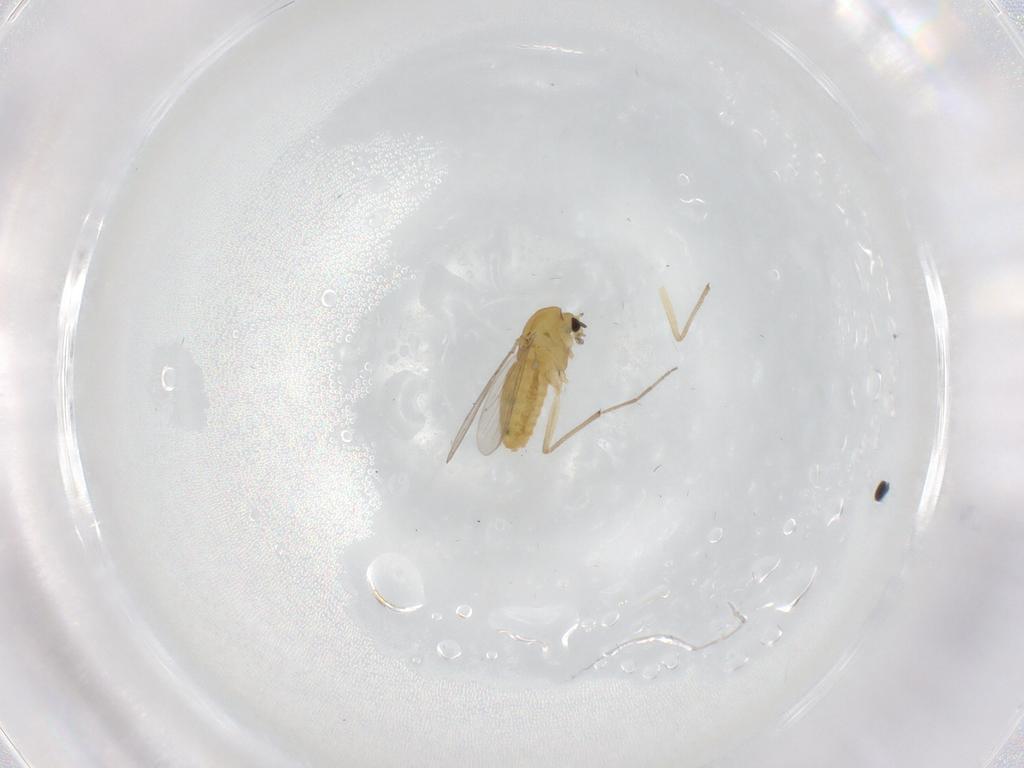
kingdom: Animalia
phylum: Arthropoda
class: Insecta
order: Diptera
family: Chironomidae
